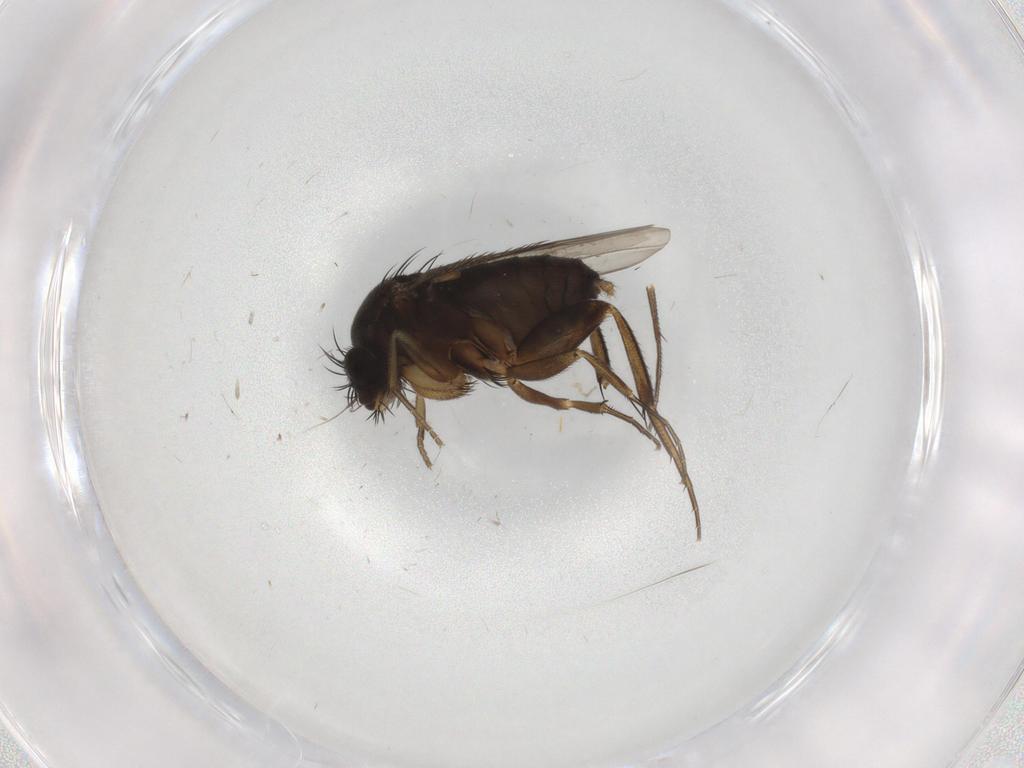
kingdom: Animalia
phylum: Arthropoda
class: Insecta
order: Diptera
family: Phoridae
